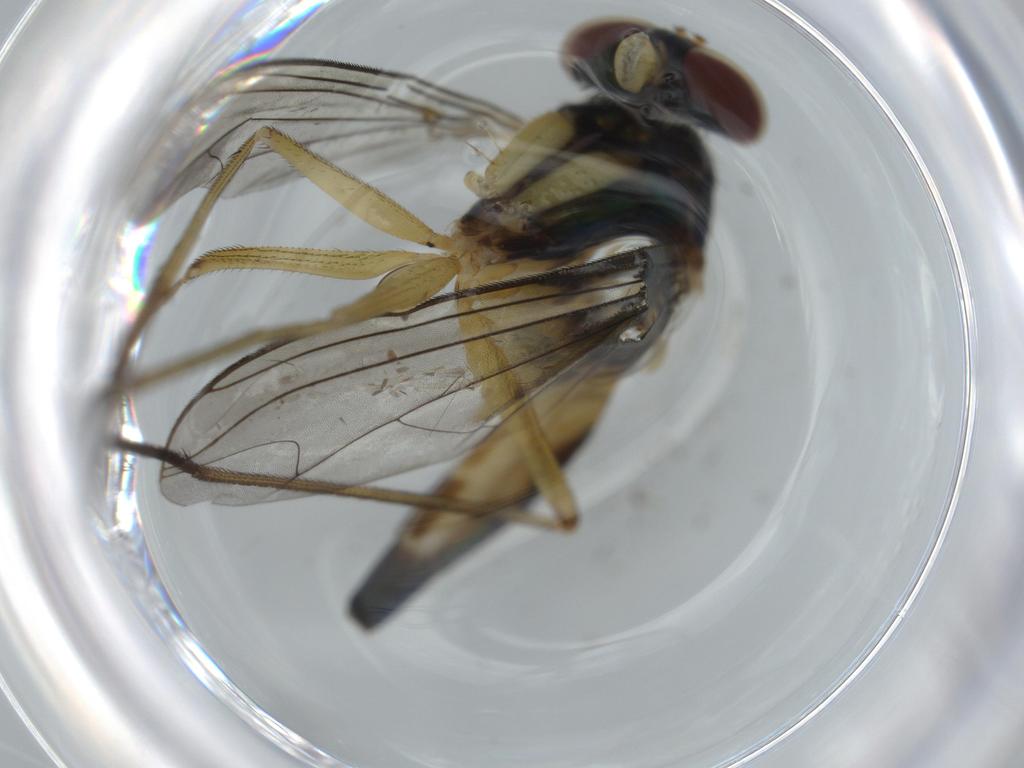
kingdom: Animalia
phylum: Arthropoda
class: Insecta
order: Diptera
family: Dolichopodidae
